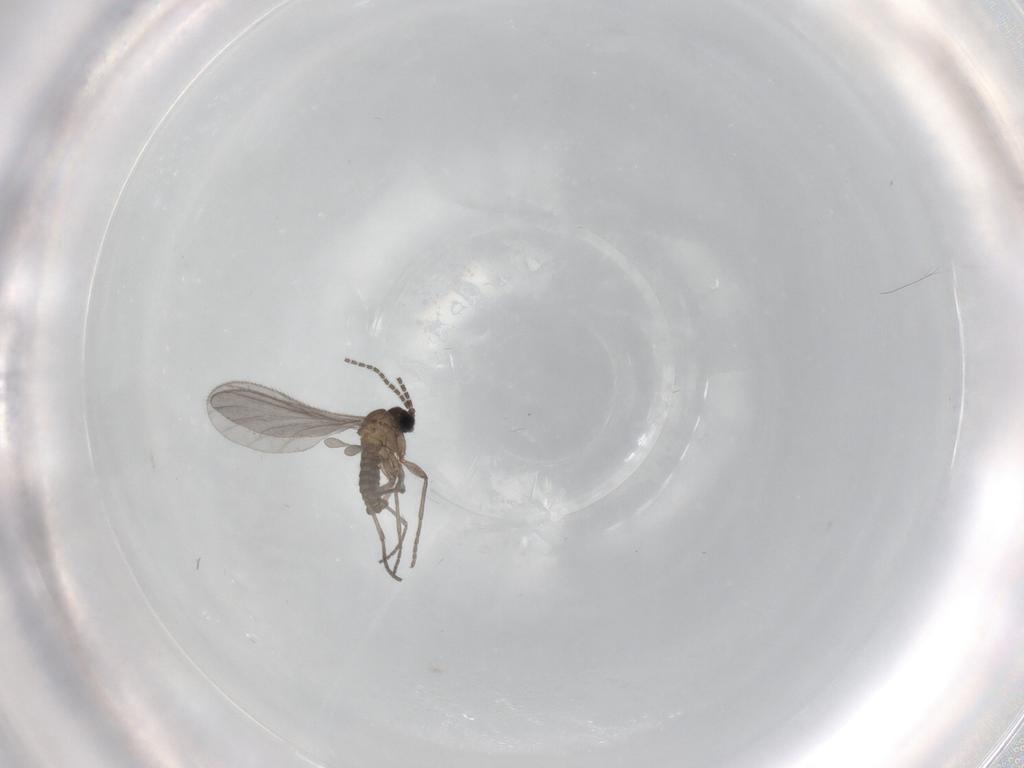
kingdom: Animalia
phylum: Arthropoda
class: Insecta
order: Diptera
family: Sciaridae
